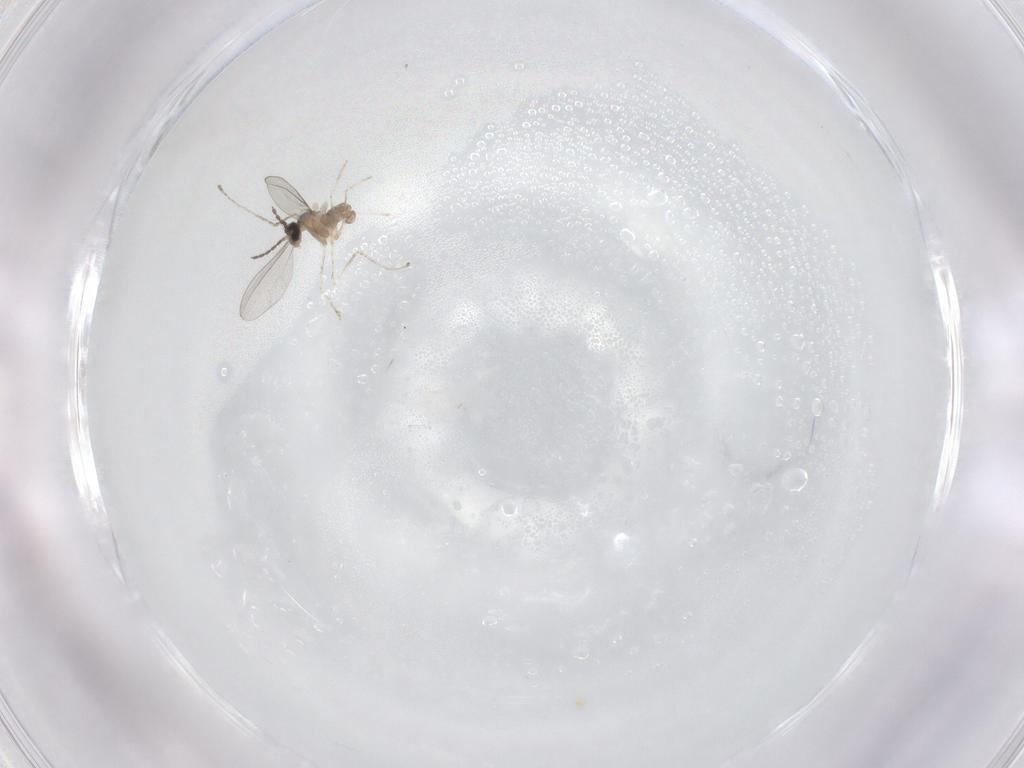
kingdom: Animalia
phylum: Arthropoda
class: Insecta
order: Diptera
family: Cecidomyiidae
